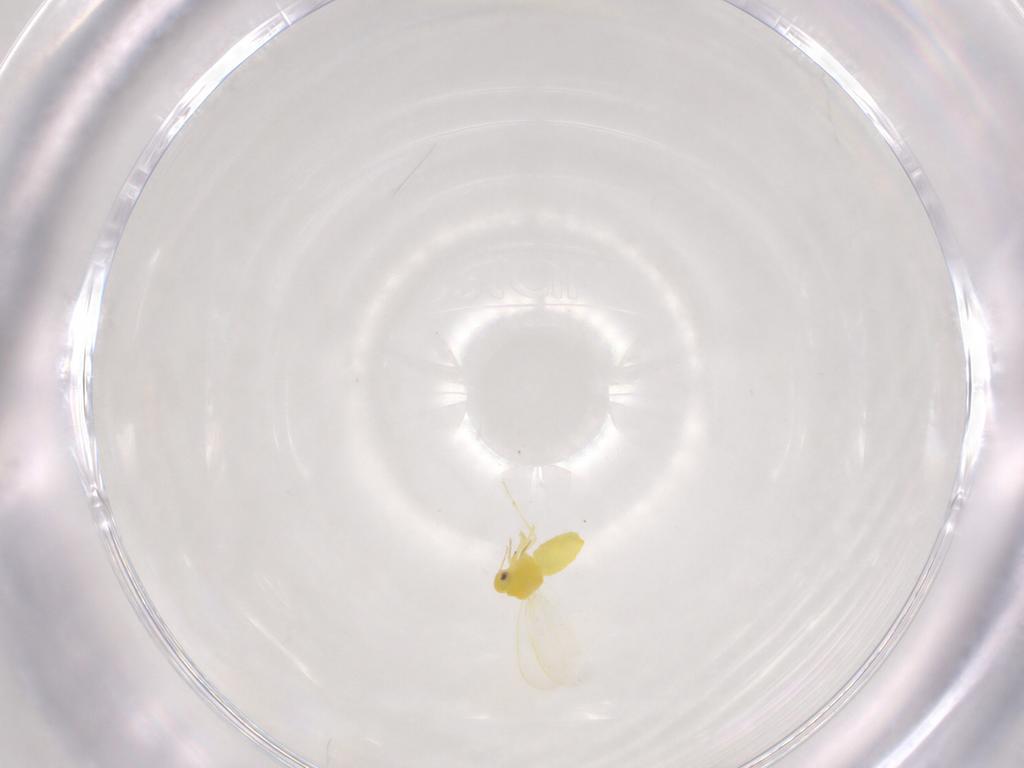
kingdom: Animalia
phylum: Arthropoda
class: Insecta
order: Hemiptera
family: Aleyrodidae
